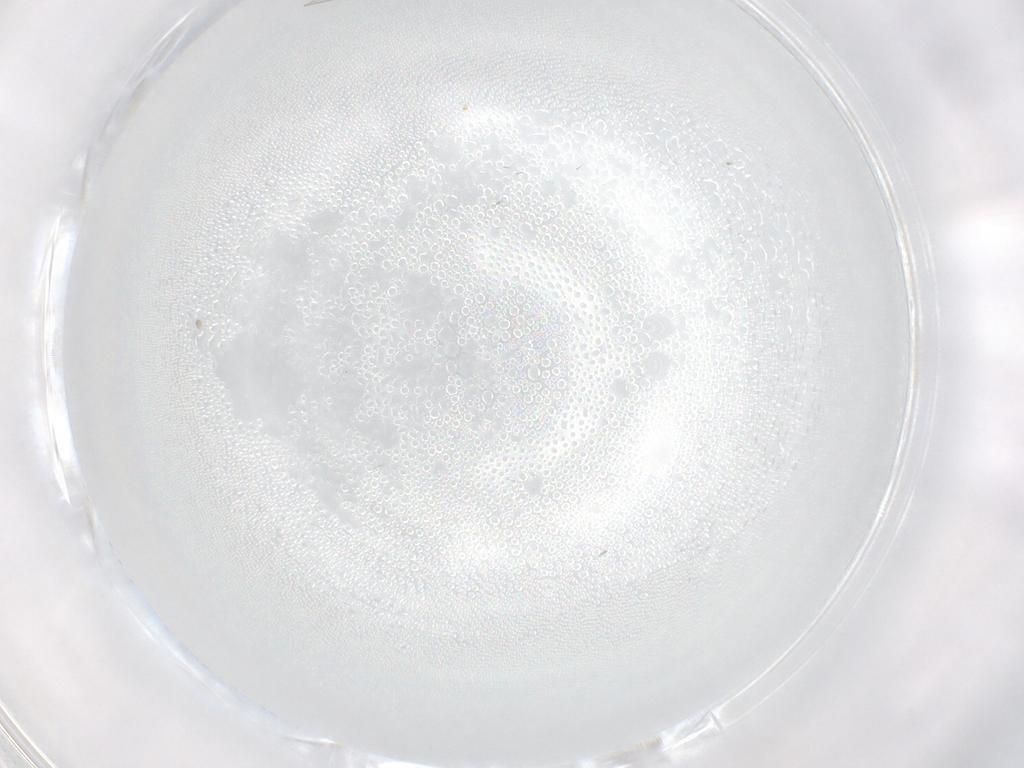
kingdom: Animalia
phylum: Arthropoda
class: Insecta
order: Diptera
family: Cecidomyiidae
